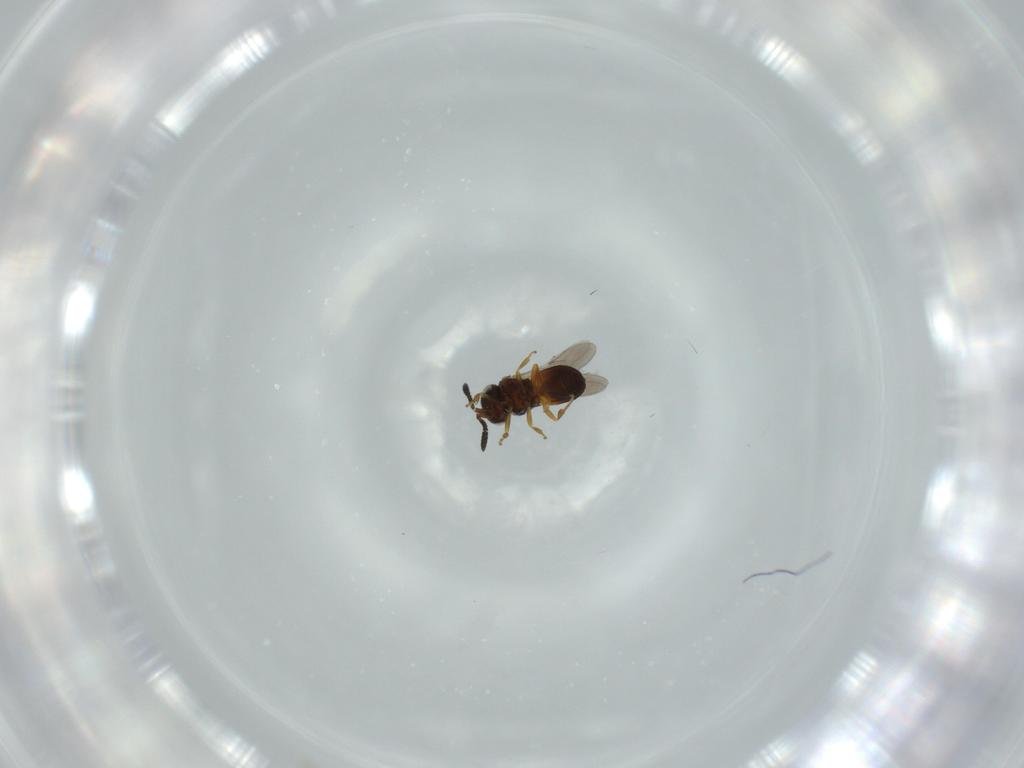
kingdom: Animalia
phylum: Arthropoda
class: Insecta
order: Hymenoptera
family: Scelionidae
